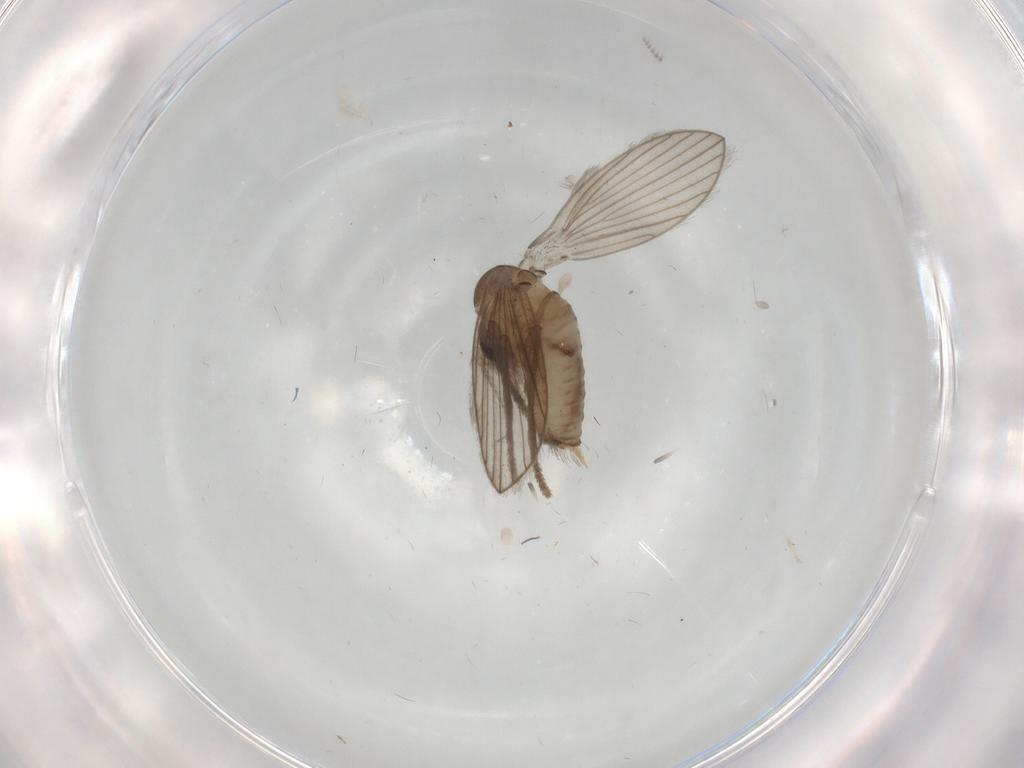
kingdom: Animalia
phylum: Arthropoda
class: Insecta
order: Diptera
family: Psychodidae
